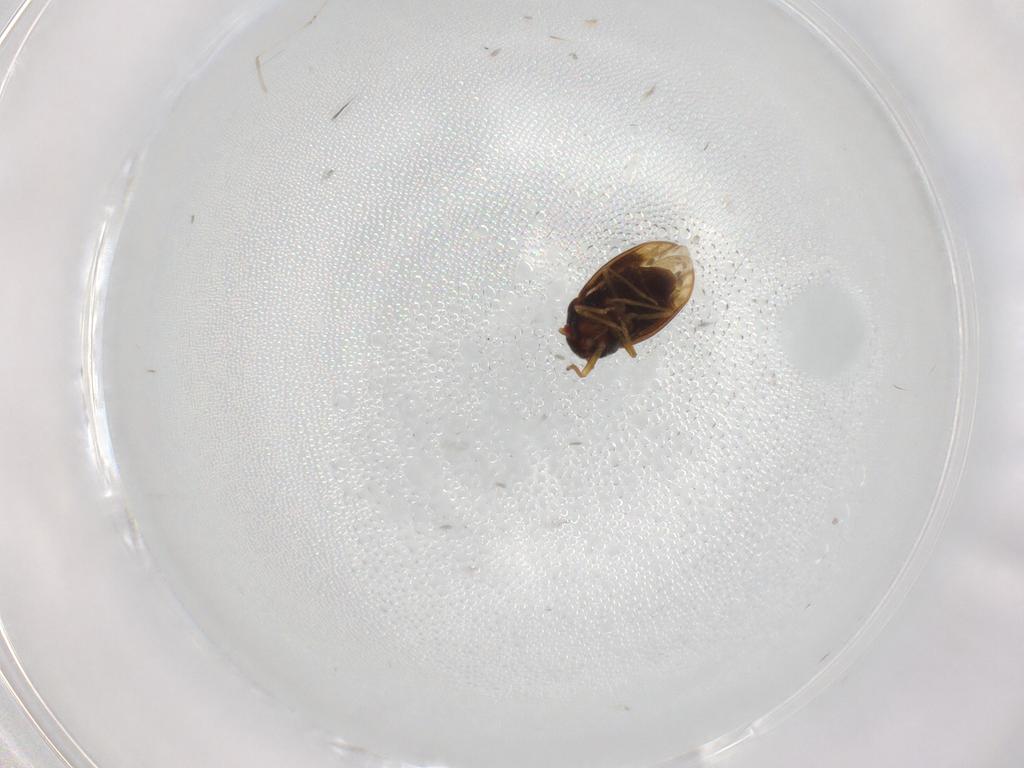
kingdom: Animalia
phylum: Arthropoda
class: Insecta
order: Hemiptera
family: Schizopteridae
